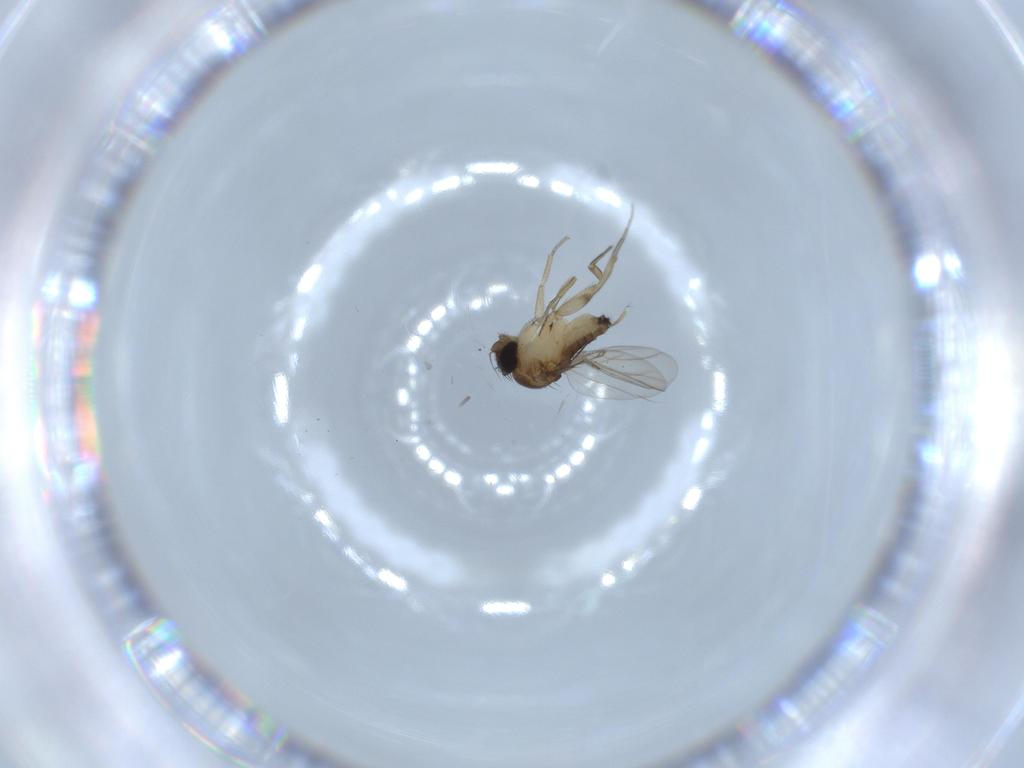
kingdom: Animalia
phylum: Arthropoda
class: Insecta
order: Diptera
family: Phoridae
